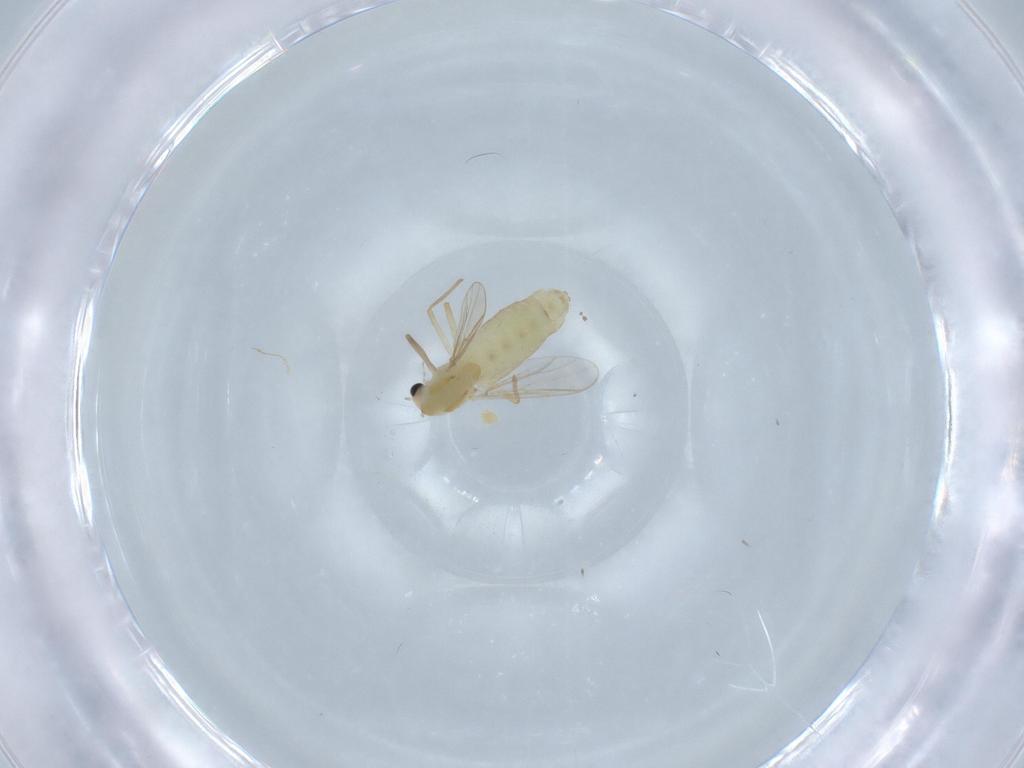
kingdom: Animalia
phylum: Arthropoda
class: Insecta
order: Diptera
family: Chironomidae
